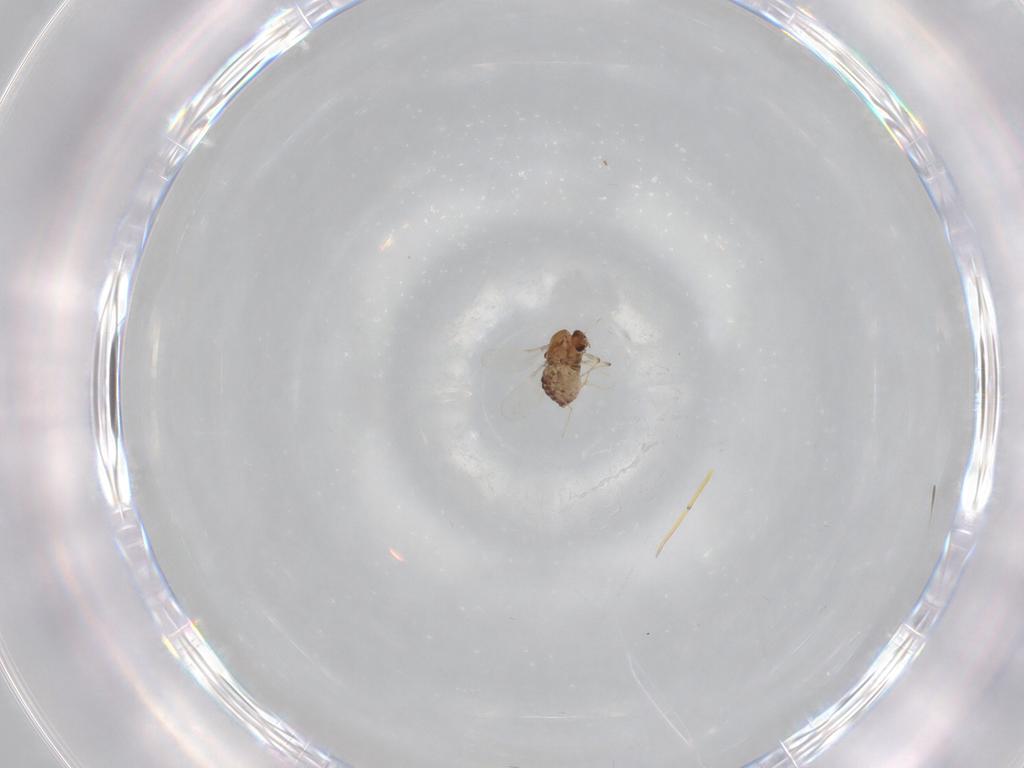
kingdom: Animalia
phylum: Arthropoda
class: Insecta
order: Diptera
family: Chironomidae
